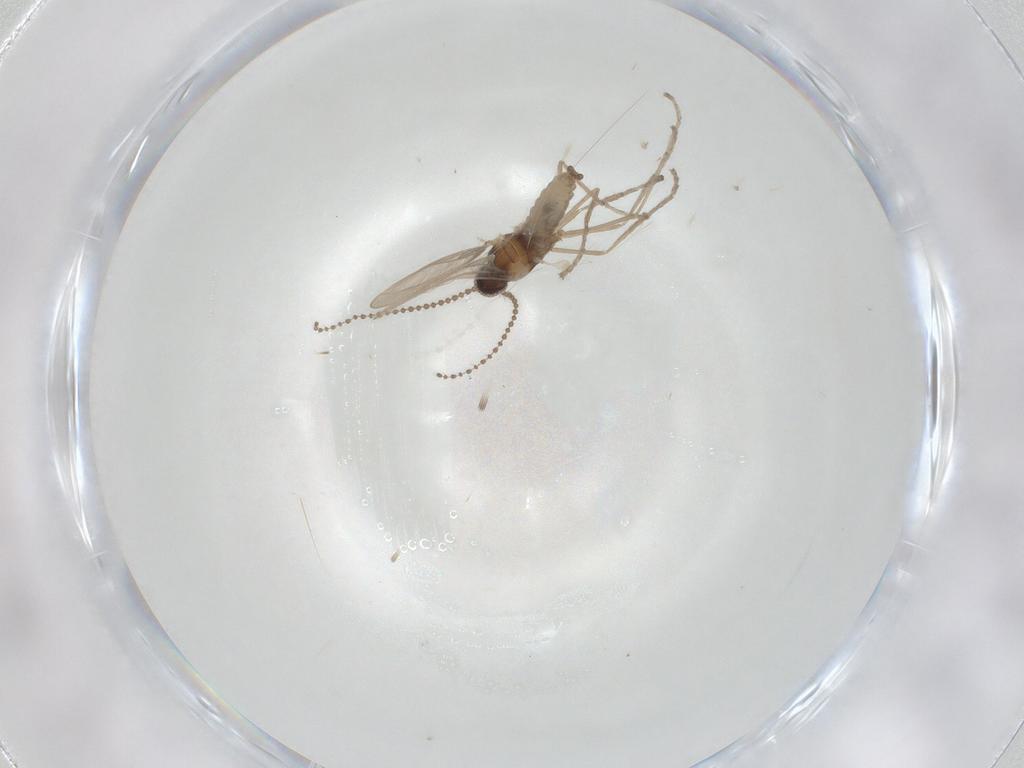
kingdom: Animalia
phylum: Arthropoda
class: Insecta
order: Diptera
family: Cecidomyiidae
